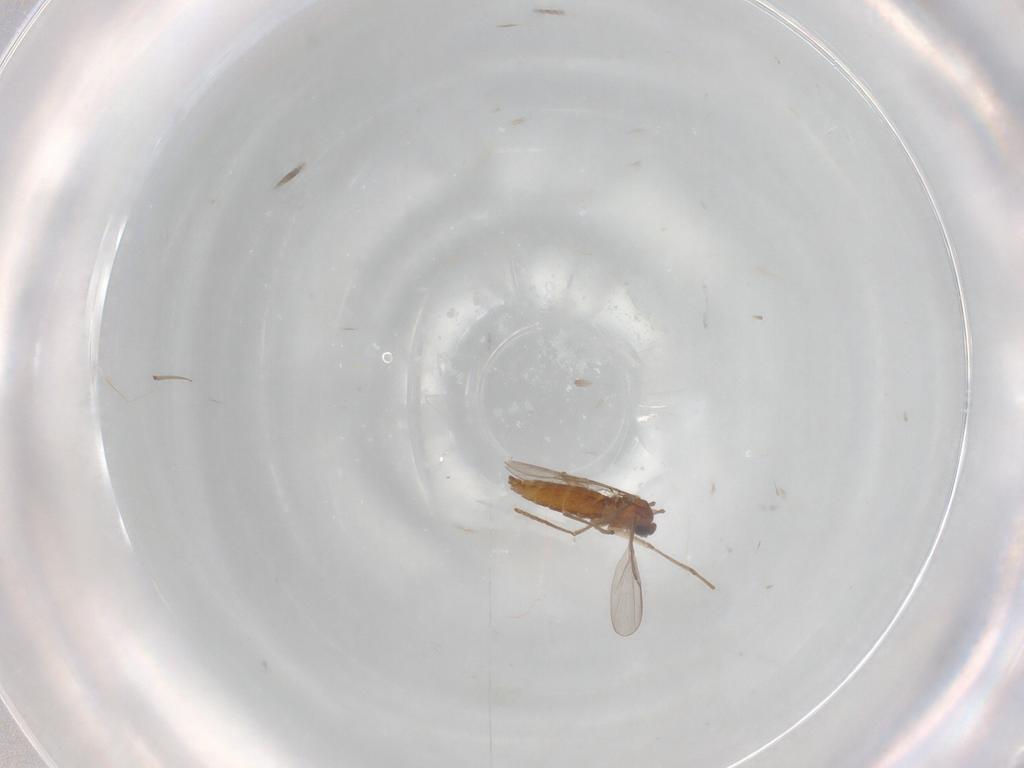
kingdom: Animalia
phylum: Arthropoda
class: Insecta
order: Diptera
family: Cecidomyiidae
